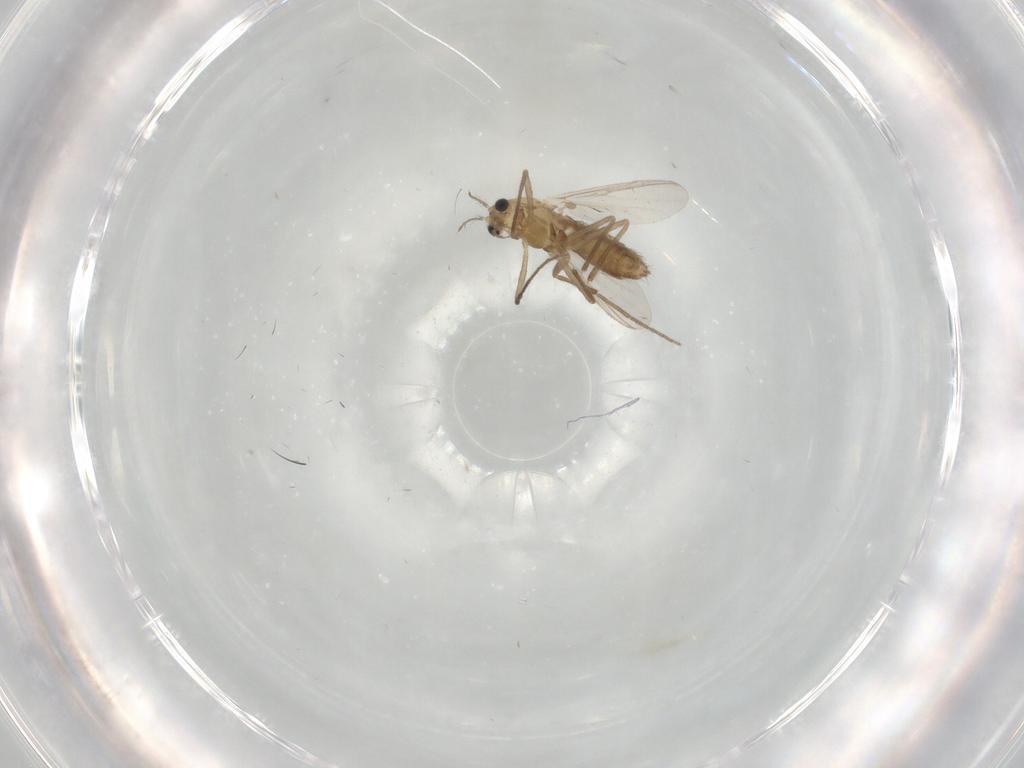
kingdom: Animalia
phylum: Arthropoda
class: Insecta
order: Diptera
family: Chironomidae
